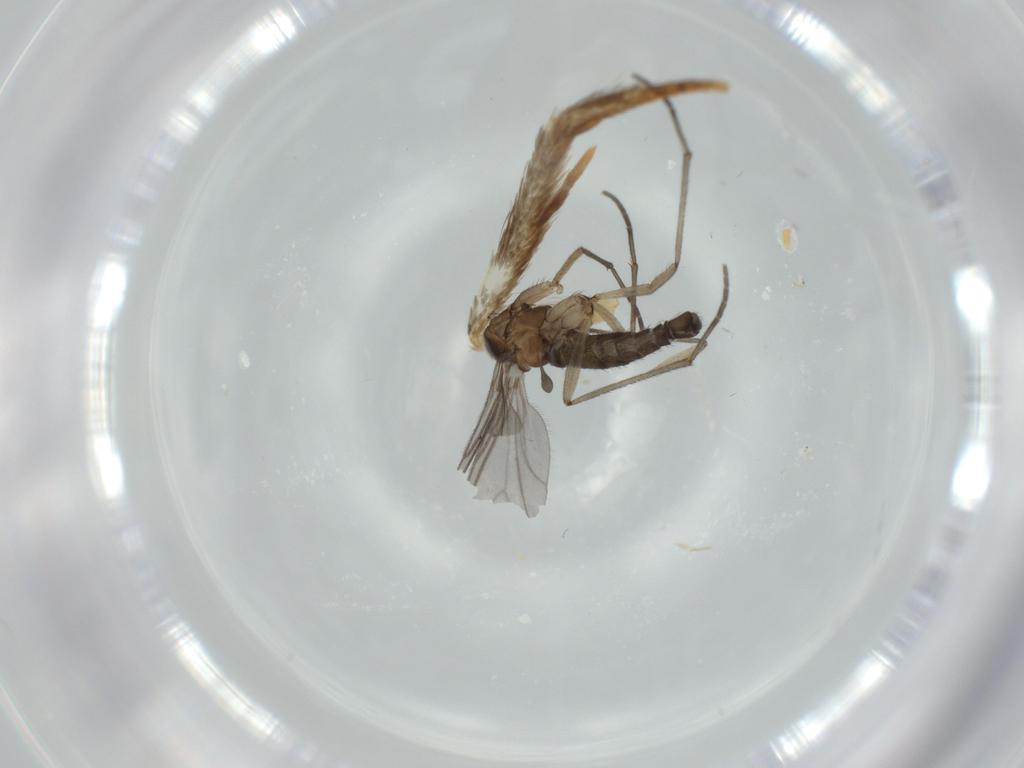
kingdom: Animalia
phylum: Arthropoda
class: Insecta
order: Diptera
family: Sciaridae
